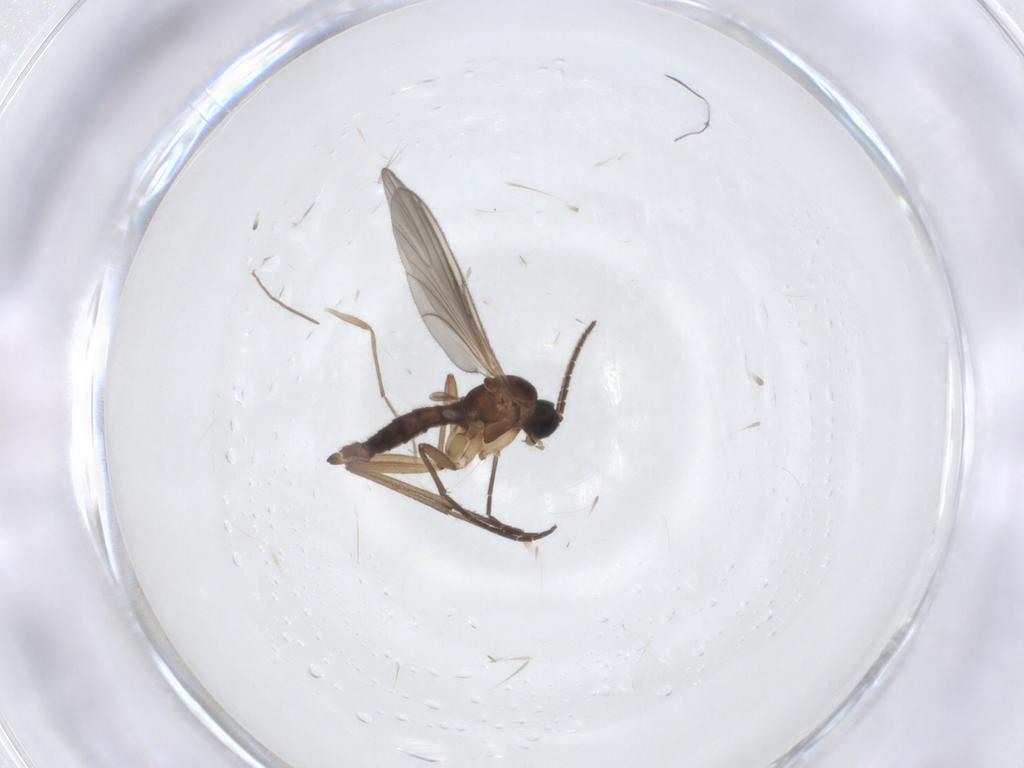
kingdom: Animalia
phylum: Arthropoda
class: Insecta
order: Diptera
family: Sciaridae
